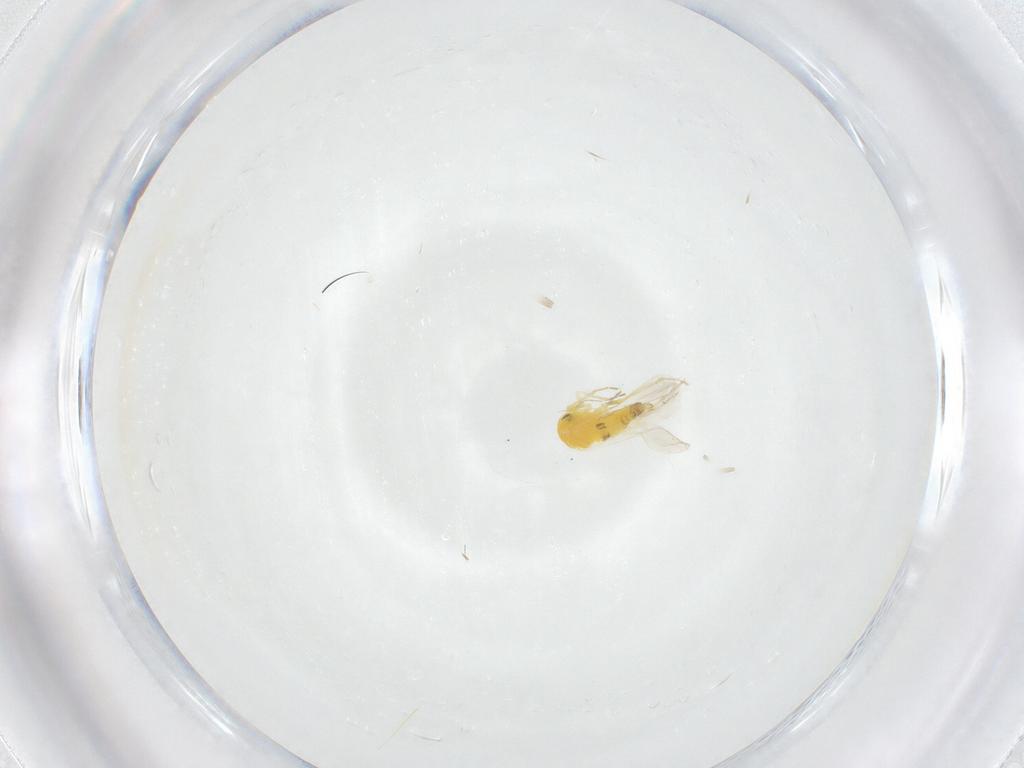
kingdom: Animalia
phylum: Arthropoda
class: Insecta
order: Hemiptera
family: Aleyrodidae
